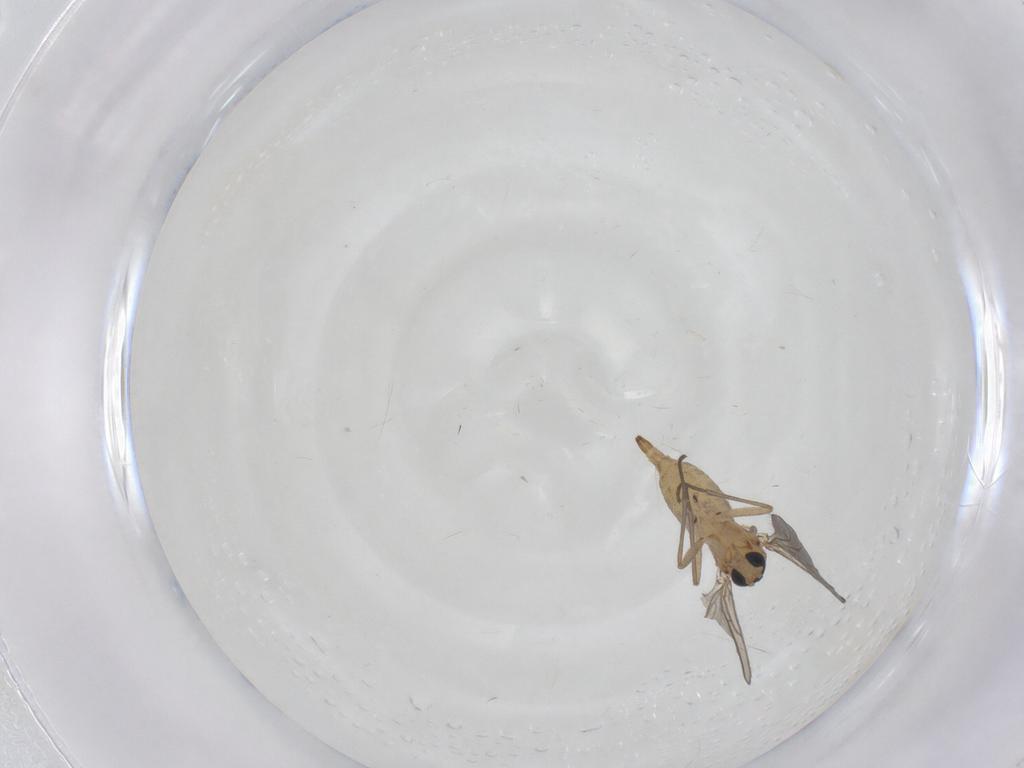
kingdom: Animalia
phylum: Arthropoda
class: Insecta
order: Diptera
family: Sciaridae
